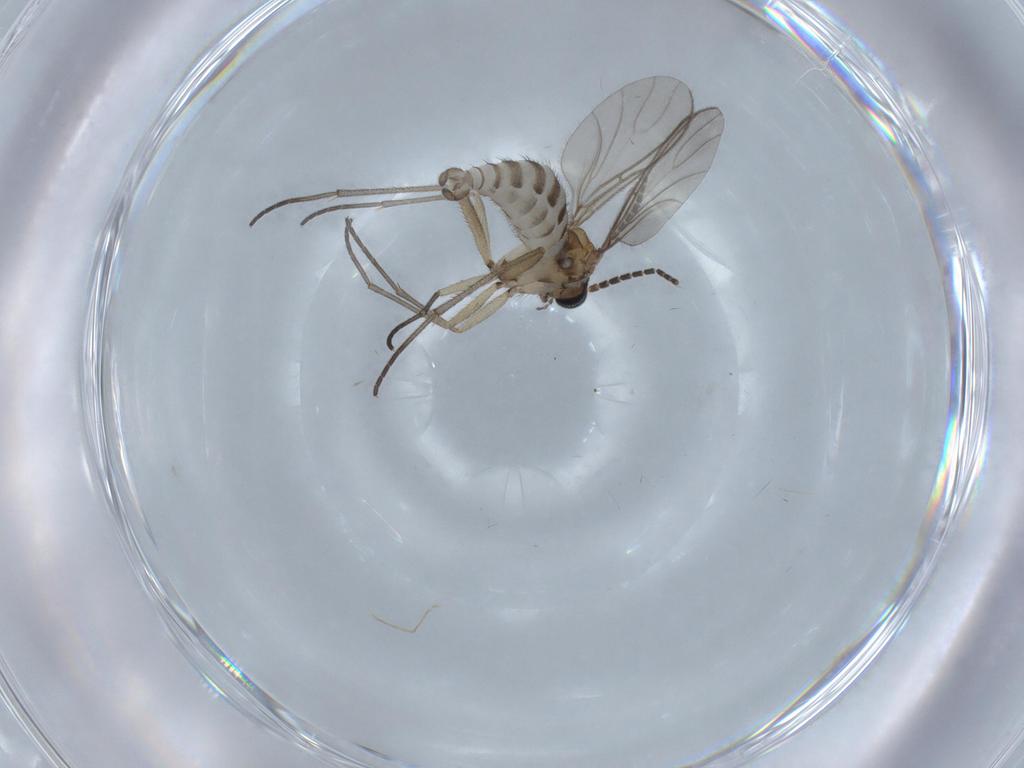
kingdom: Animalia
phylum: Arthropoda
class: Insecta
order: Diptera
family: Sciaridae
